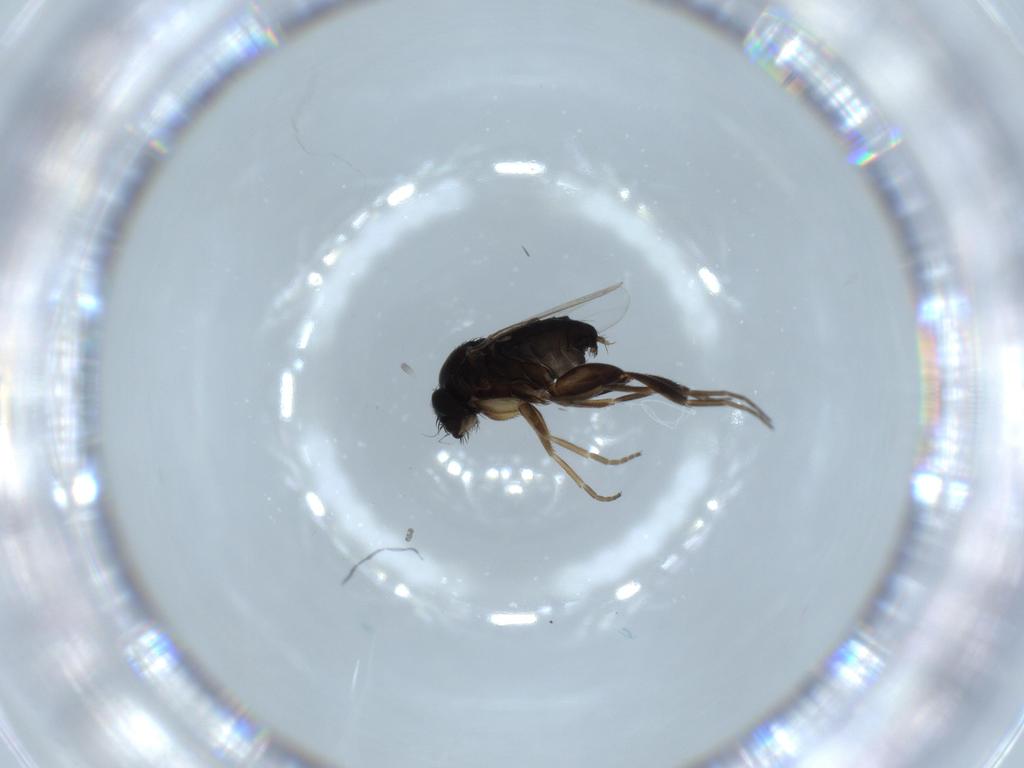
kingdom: Animalia
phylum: Arthropoda
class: Insecta
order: Diptera
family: Phoridae
